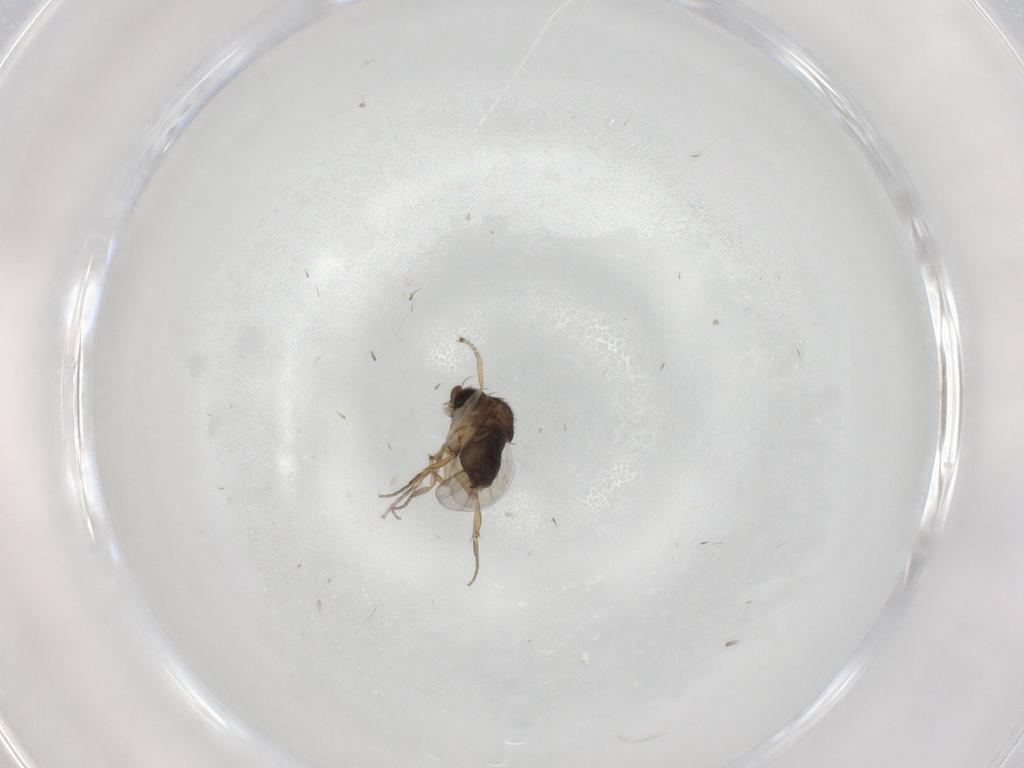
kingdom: Animalia
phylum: Arthropoda
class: Insecta
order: Diptera
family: Phoridae
